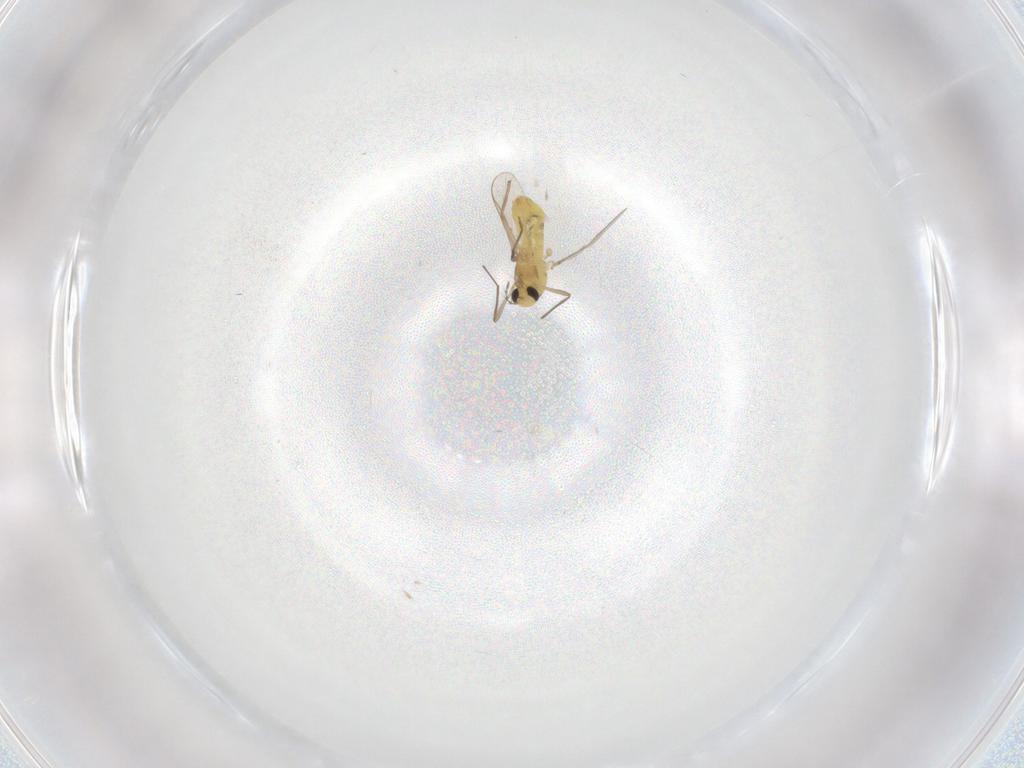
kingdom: Animalia
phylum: Arthropoda
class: Insecta
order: Diptera
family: Chironomidae
